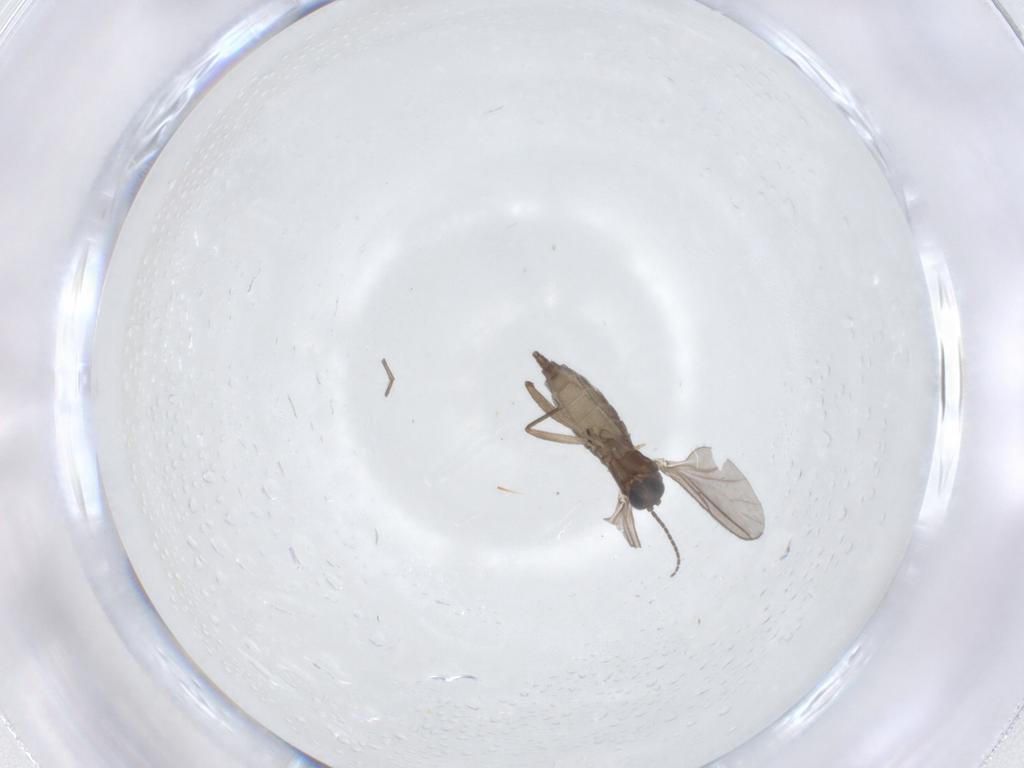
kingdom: Animalia
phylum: Arthropoda
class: Insecta
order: Diptera
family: Sciaridae
